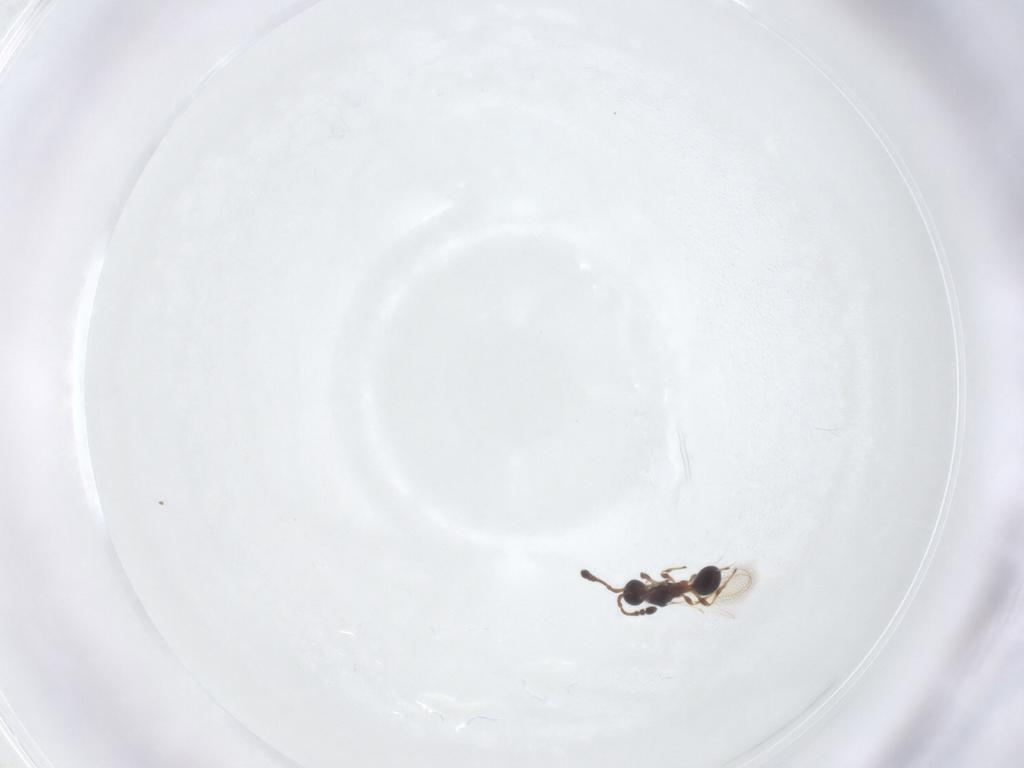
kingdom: Animalia
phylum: Arthropoda
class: Insecta
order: Hymenoptera
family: Diapriidae
